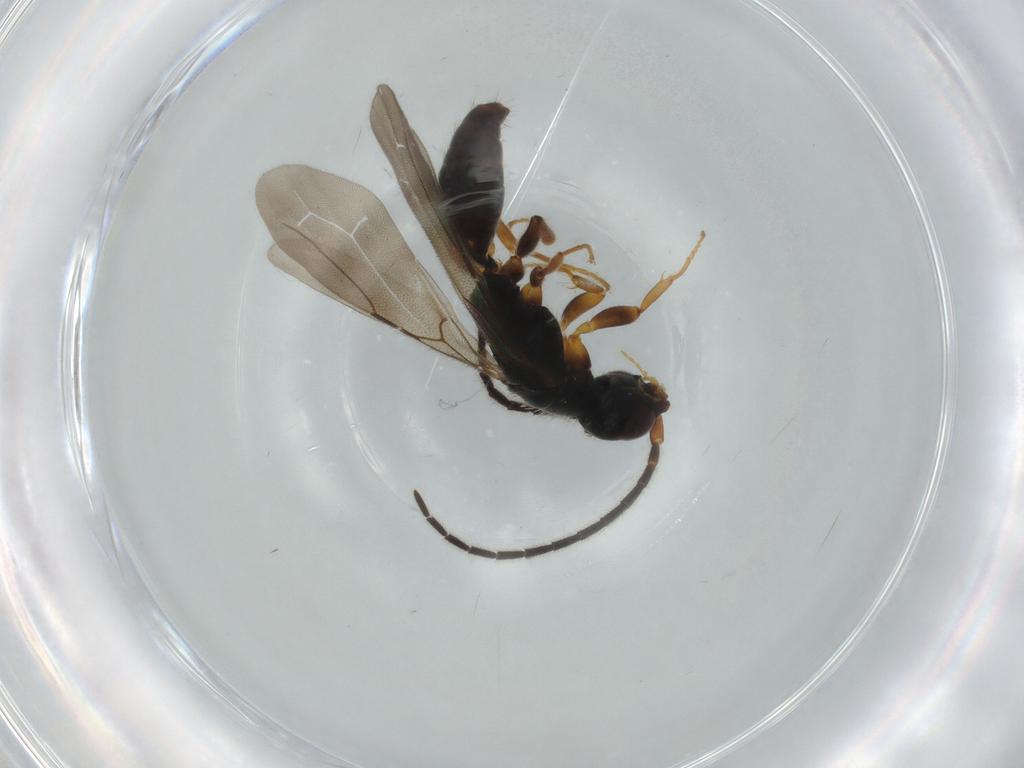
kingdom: Animalia
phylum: Arthropoda
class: Insecta
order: Hymenoptera
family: Bethylidae
